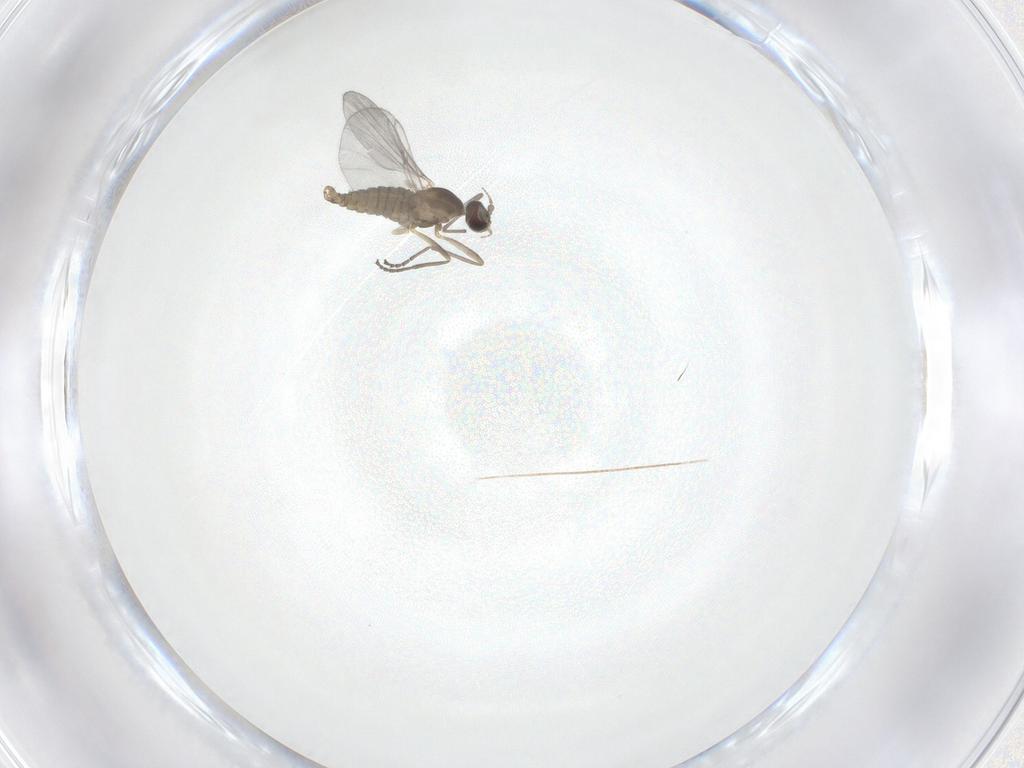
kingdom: Animalia
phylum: Arthropoda
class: Insecta
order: Diptera
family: Cecidomyiidae
